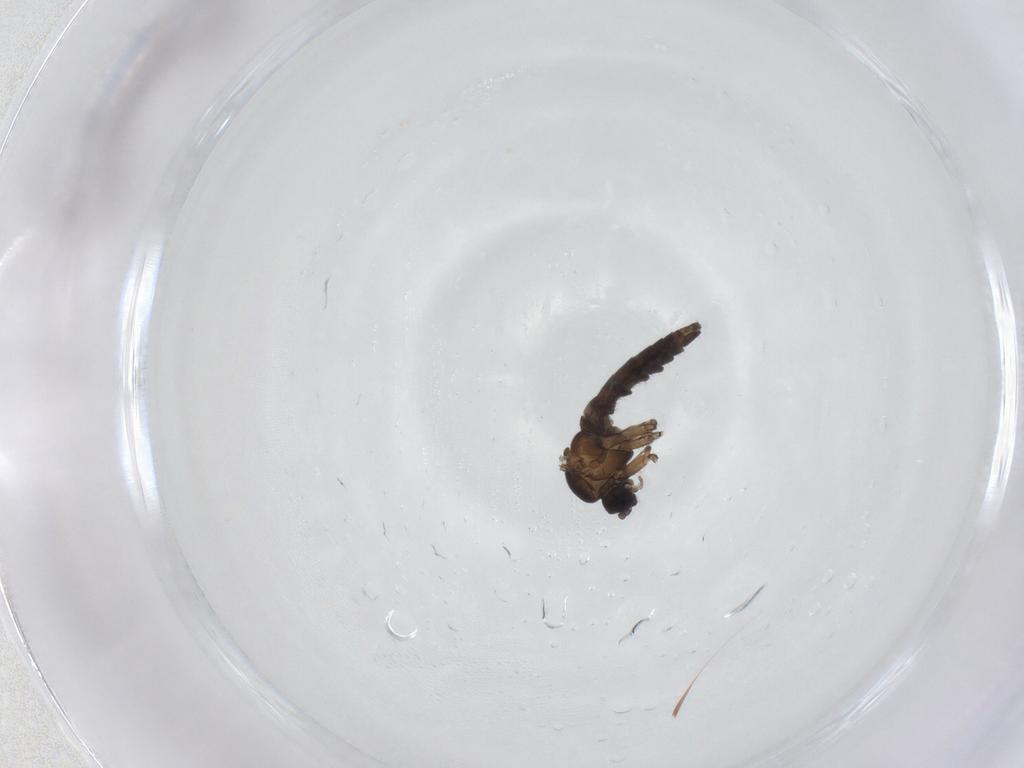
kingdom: Animalia
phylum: Arthropoda
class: Insecta
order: Diptera
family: Sciaridae
